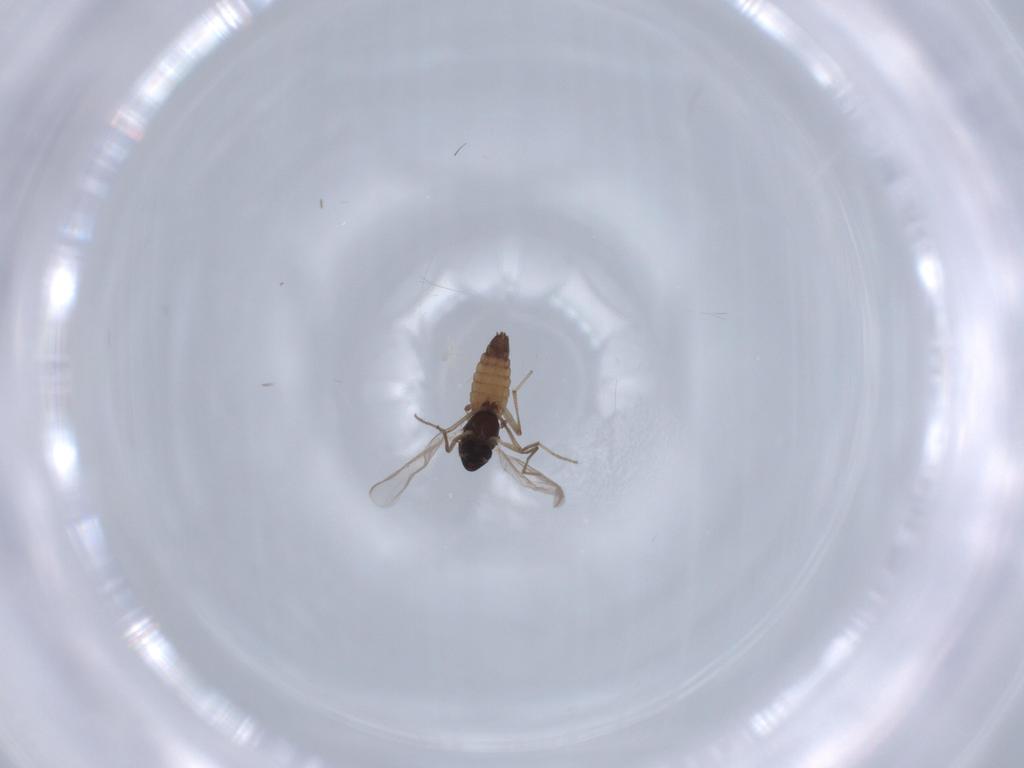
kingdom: Animalia
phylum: Arthropoda
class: Insecta
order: Diptera
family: Chironomidae
